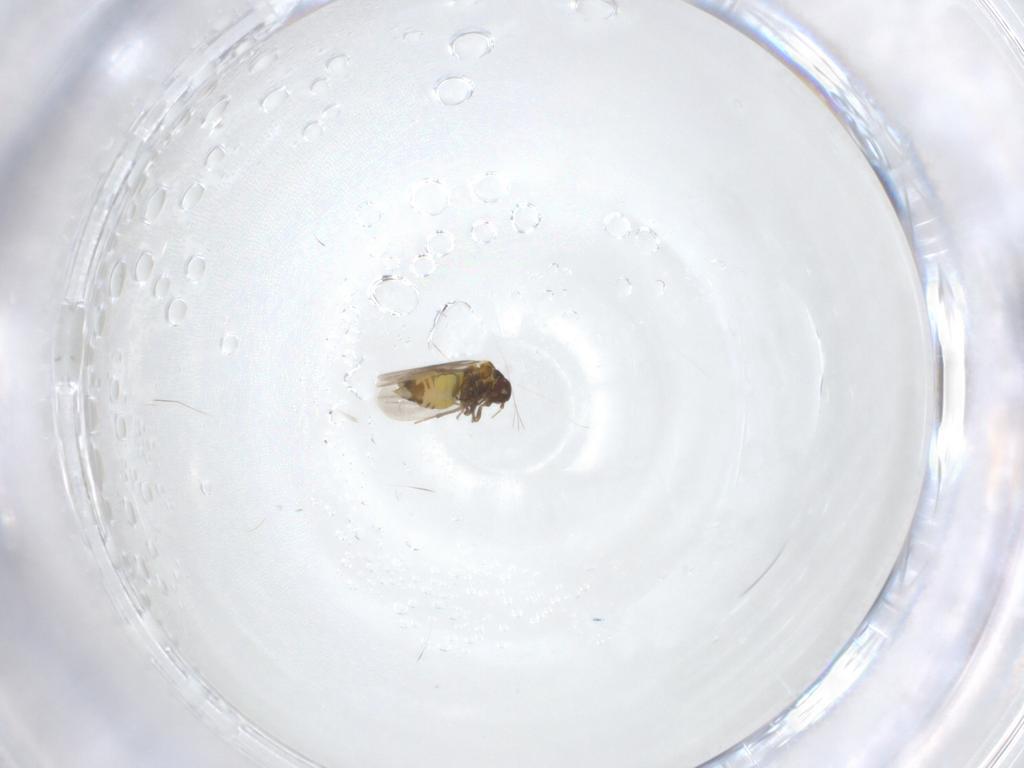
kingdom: Animalia
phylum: Arthropoda
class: Insecta
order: Hemiptera
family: Aleyrodidae
